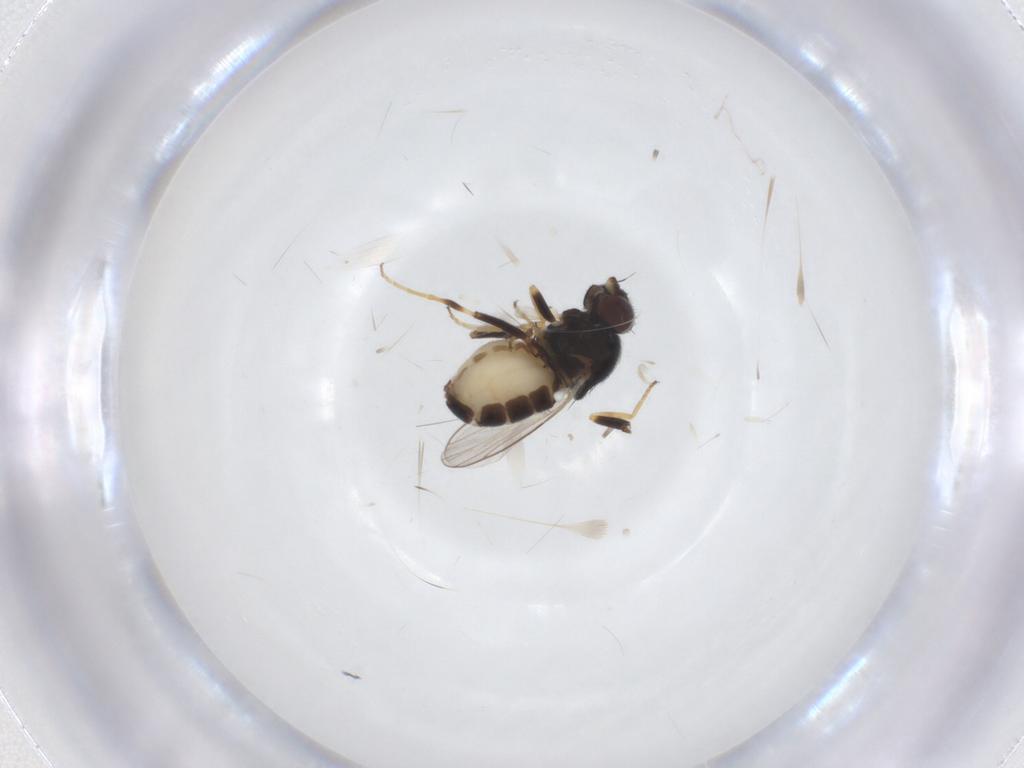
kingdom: Animalia
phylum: Arthropoda
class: Insecta
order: Diptera
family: Chloropidae
